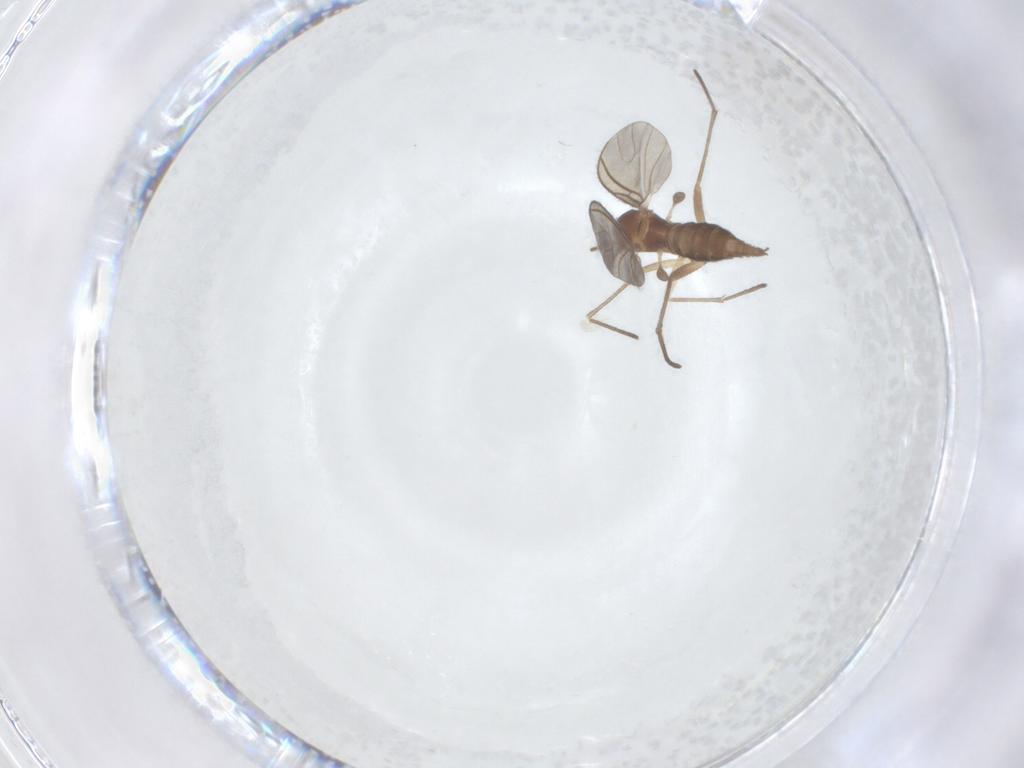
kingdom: Animalia
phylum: Arthropoda
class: Insecta
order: Diptera
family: Sciaridae
